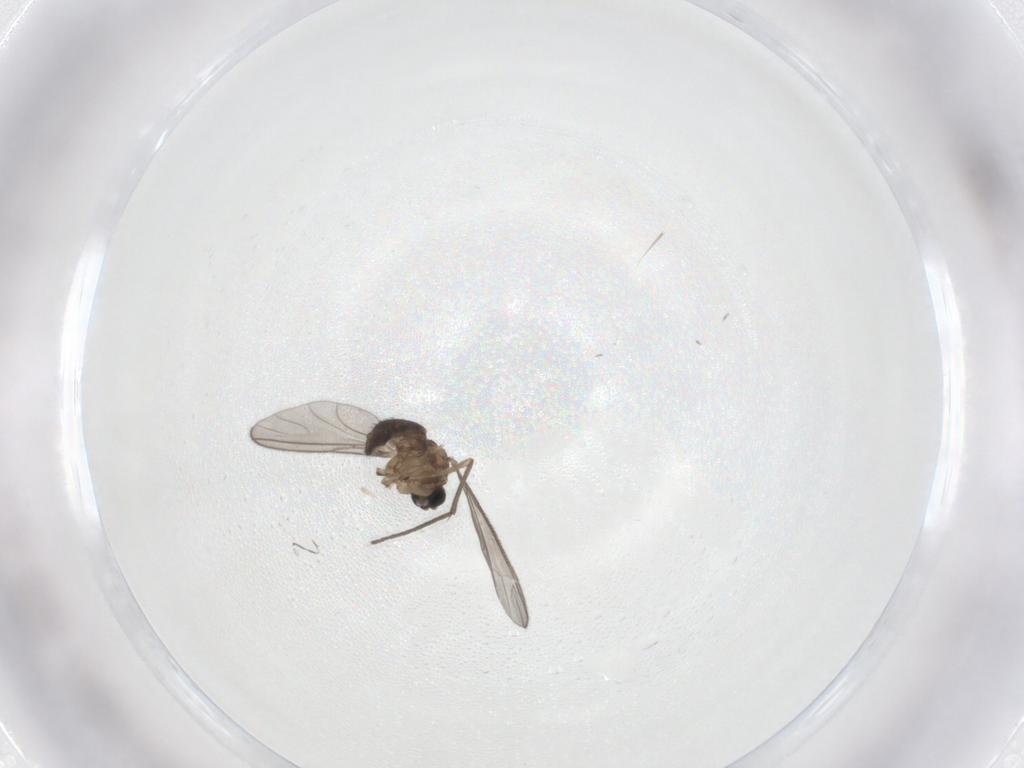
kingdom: Animalia
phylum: Arthropoda
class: Insecta
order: Diptera
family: Sciaridae
